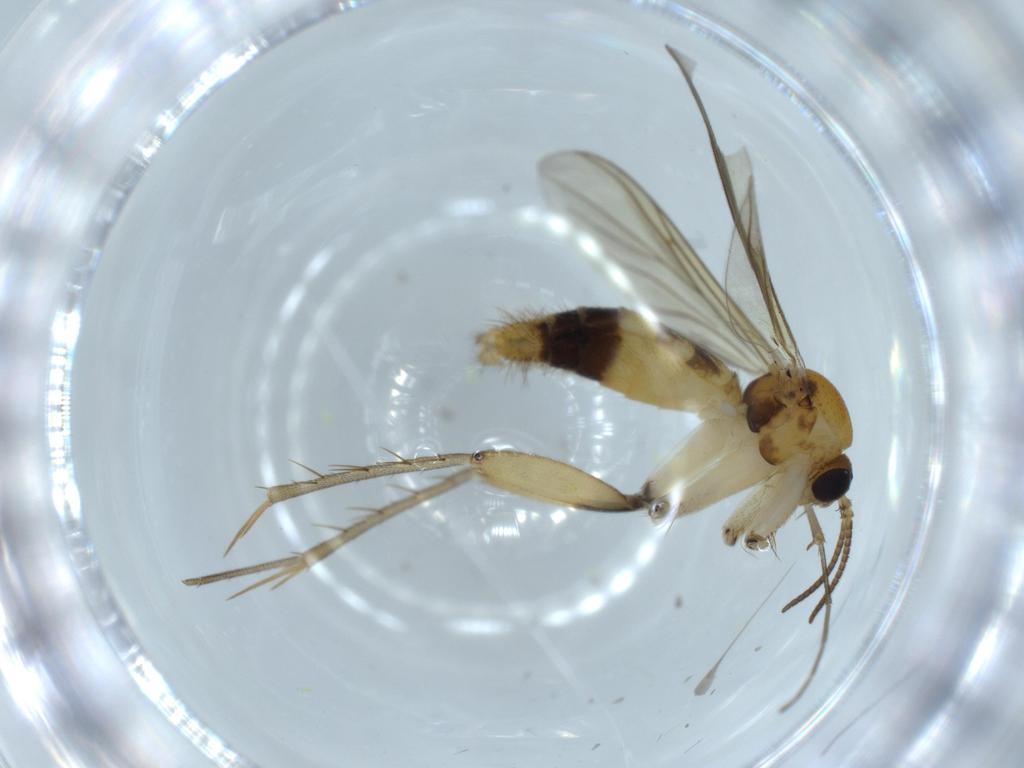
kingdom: Animalia
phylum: Arthropoda
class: Insecta
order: Diptera
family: Mycetophilidae
